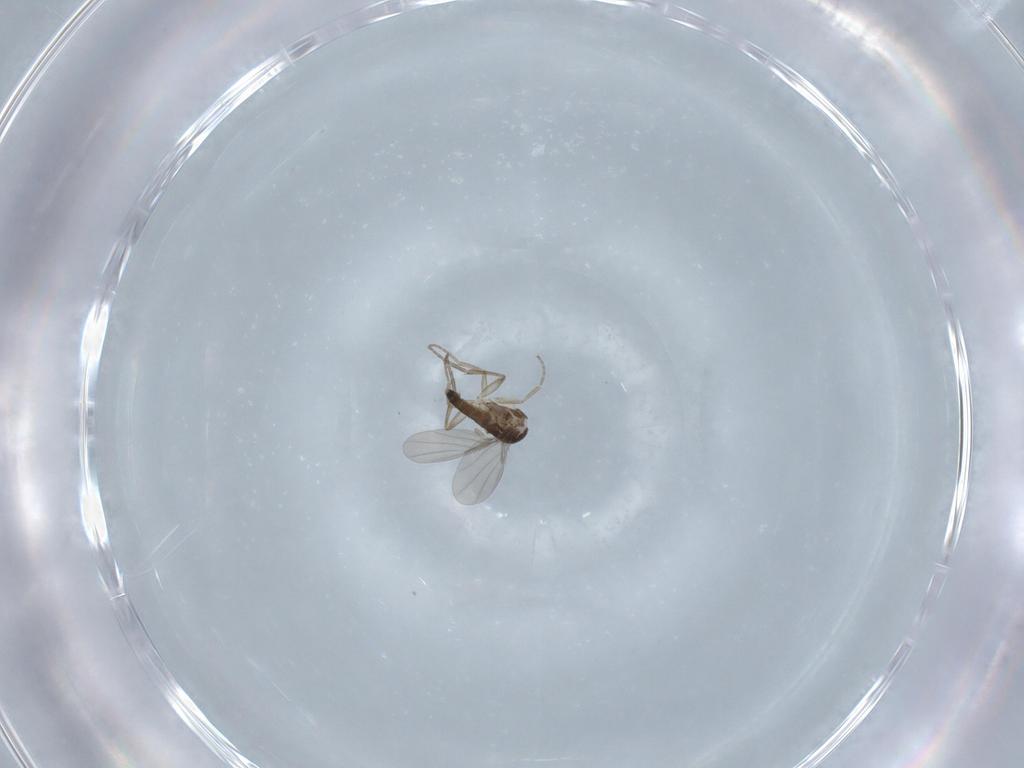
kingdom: Animalia
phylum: Arthropoda
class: Insecta
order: Diptera
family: Phoridae
